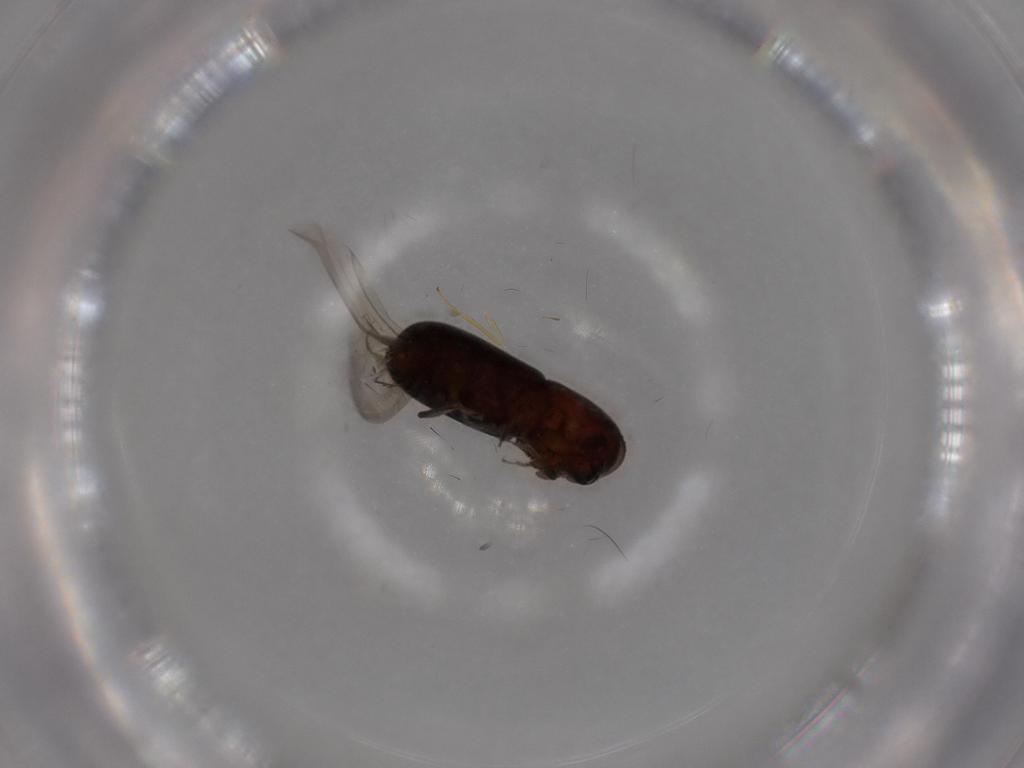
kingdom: Animalia
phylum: Arthropoda
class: Insecta
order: Coleoptera
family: Curculionidae
